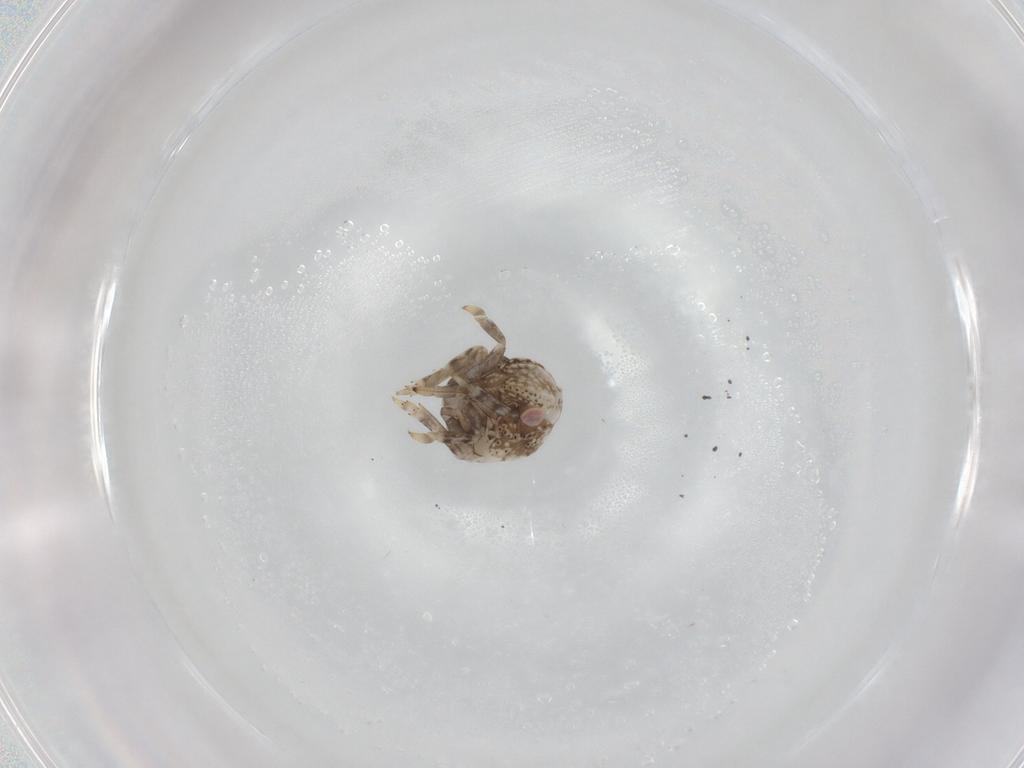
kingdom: Animalia
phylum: Arthropoda
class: Insecta
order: Hemiptera
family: Acanaloniidae
